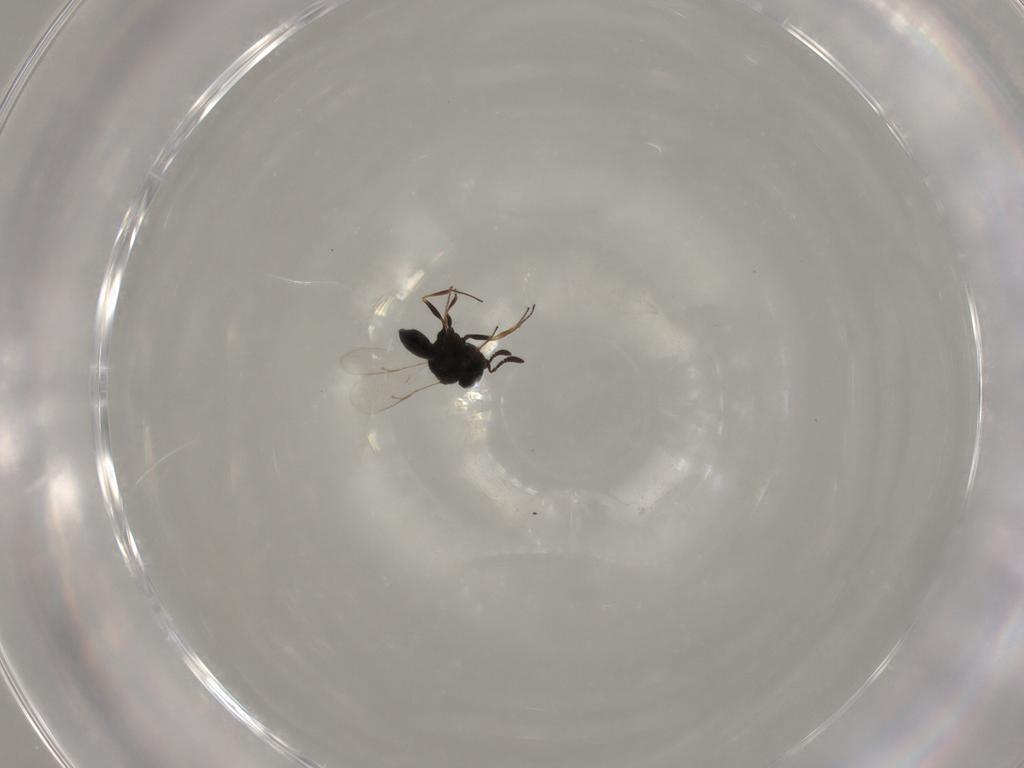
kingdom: Animalia
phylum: Arthropoda
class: Insecta
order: Hymenoptera
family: Scelionidae
